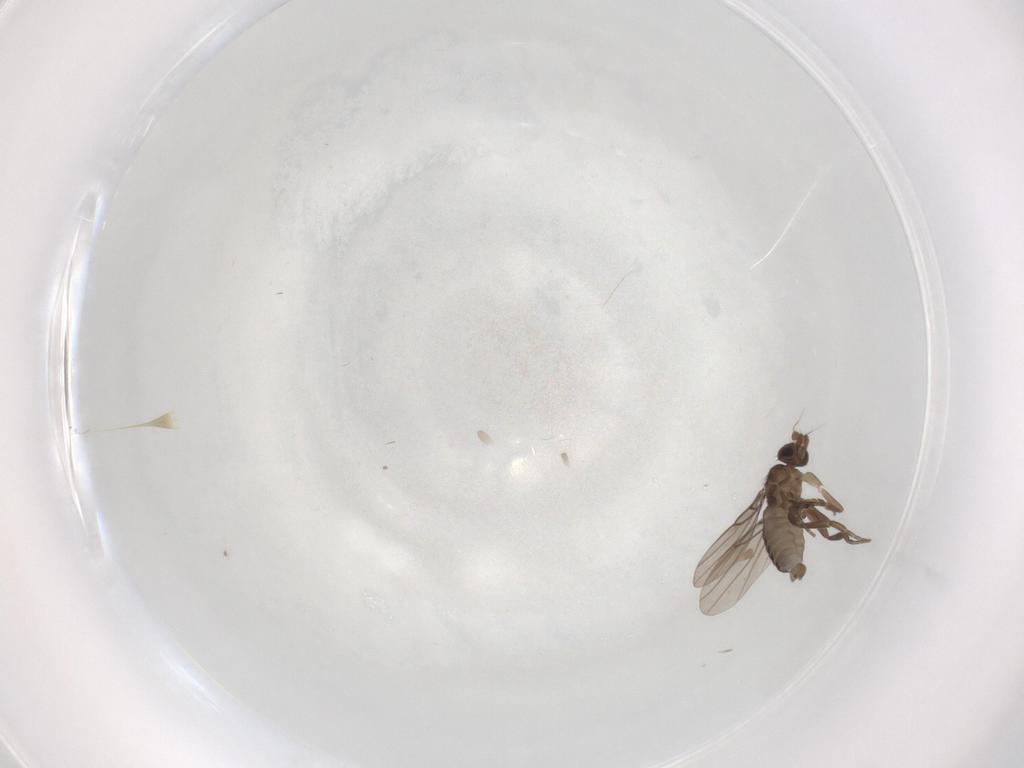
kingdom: Animalia
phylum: Arthropoda
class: Insecta
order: Diptera
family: Phoridae
